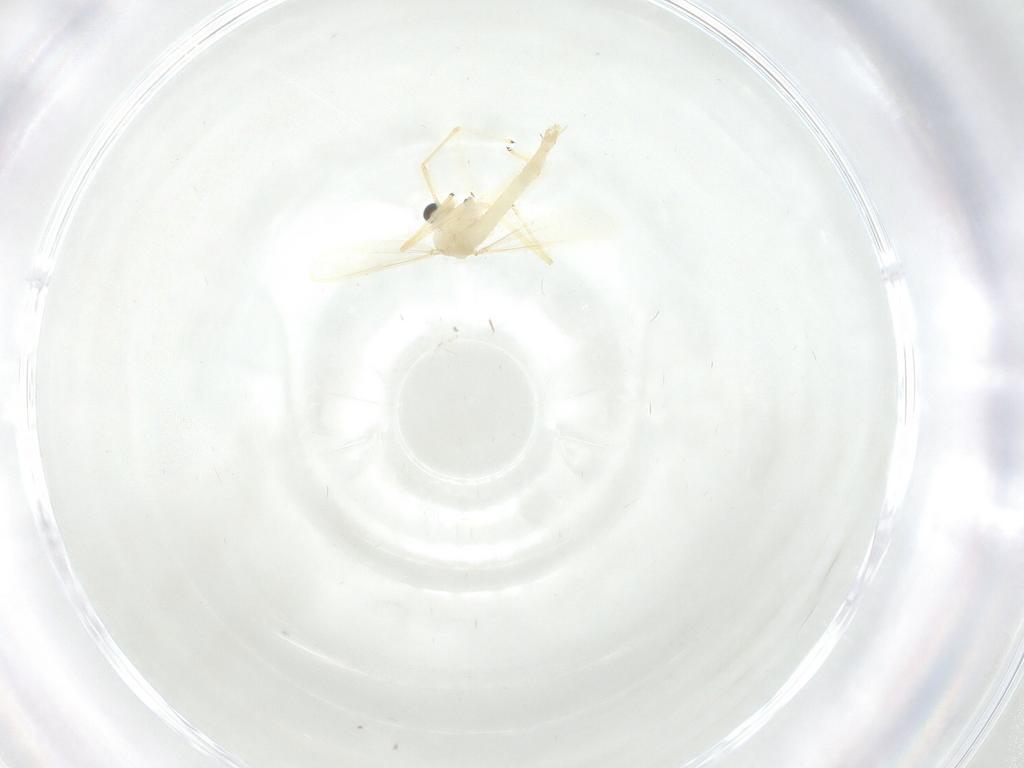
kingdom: Animalia
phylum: Arthropoda
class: Insecta
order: Diptera
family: Chironomidae
